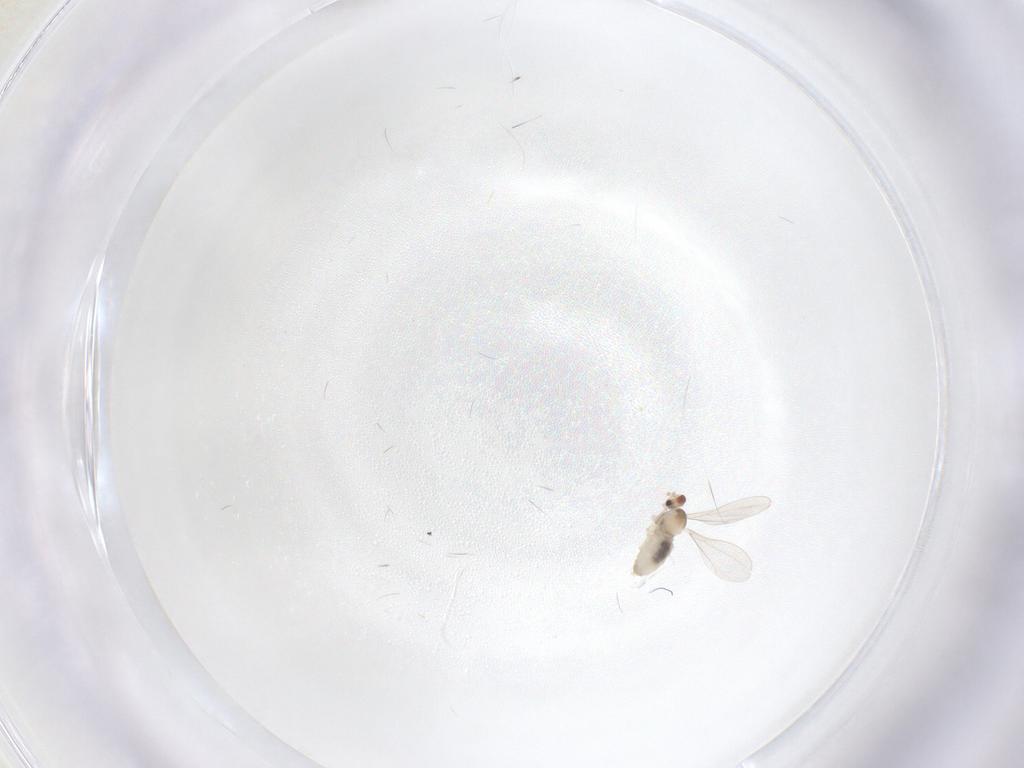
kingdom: Animalia
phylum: Arthropoda
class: Insecta
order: Diptera
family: Cecidomyiidae
